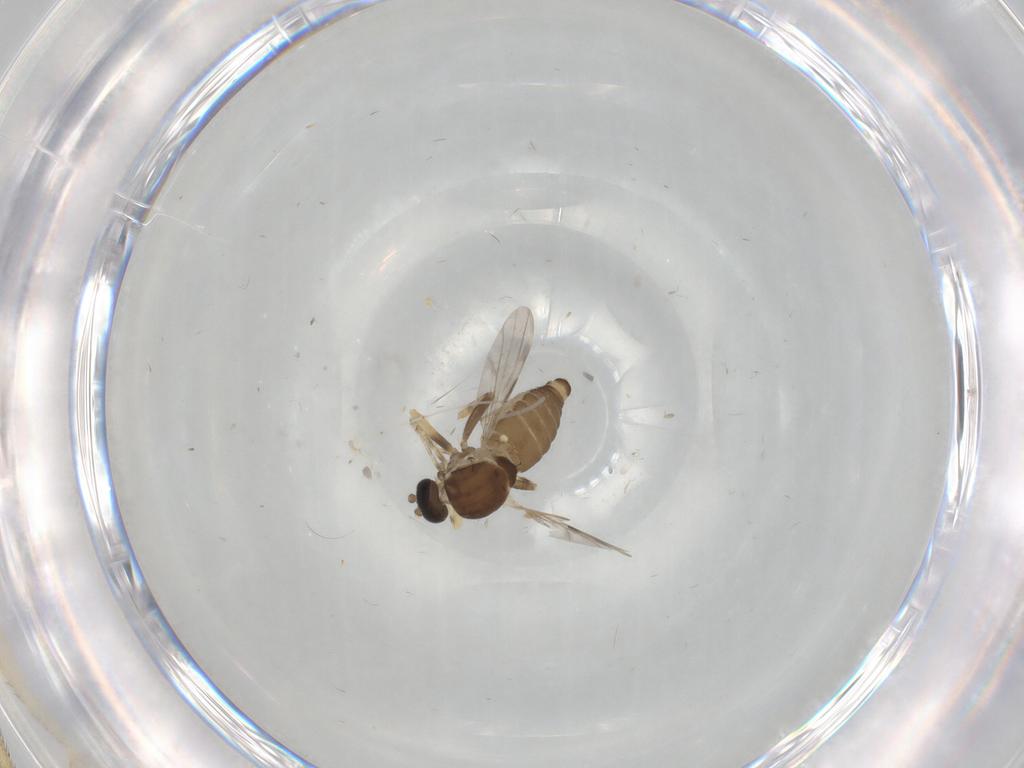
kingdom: Animalia
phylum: Arthropoda
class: Insecta
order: Diptera
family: Ceratopogonidae
